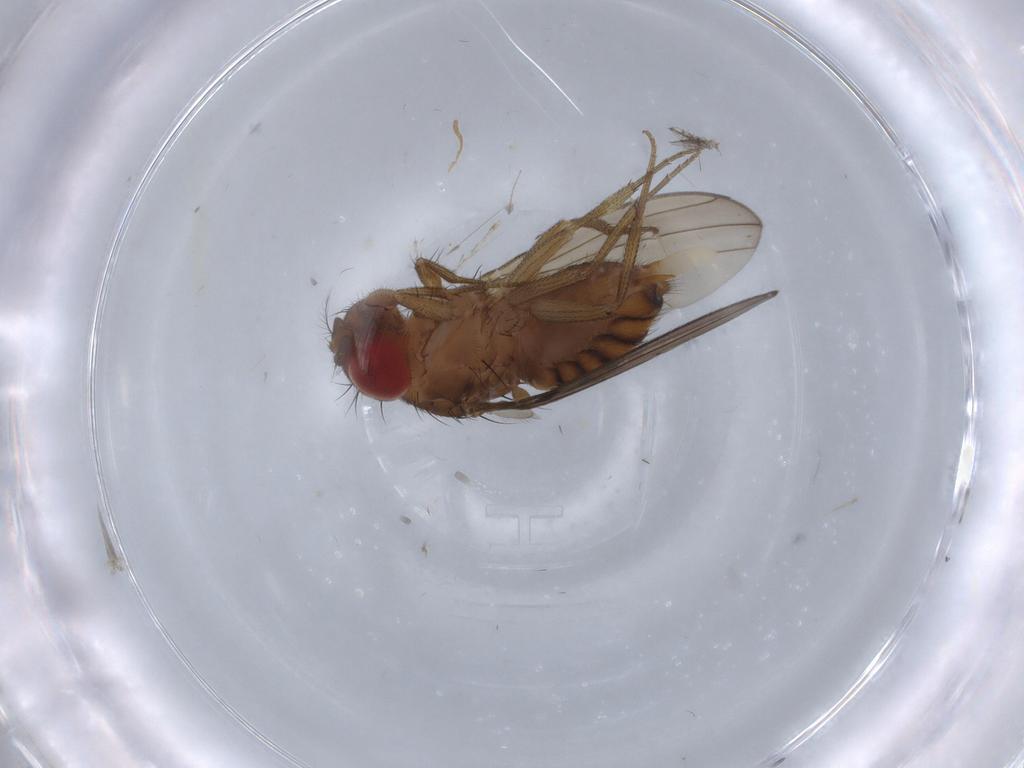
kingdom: Animalia
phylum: Arthropoda
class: Insecta
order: Diptera
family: Drosophilidae
